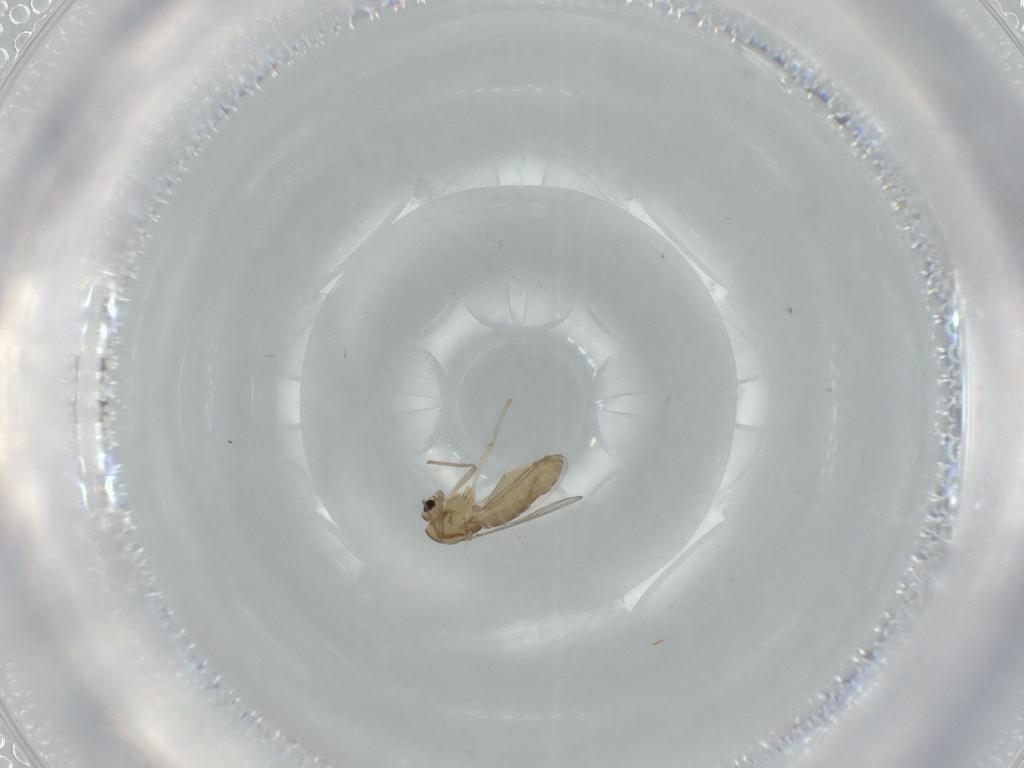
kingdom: Animalia
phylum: Arthropoda
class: Insecta
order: Diptera
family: Chironomidae
